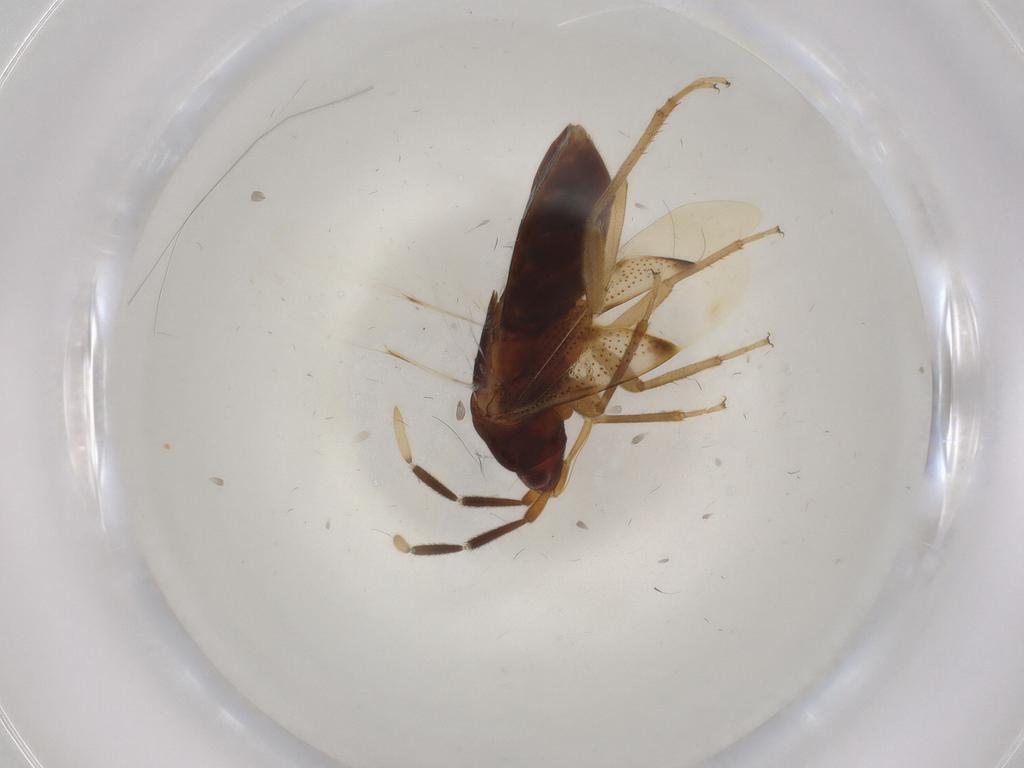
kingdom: Animalia
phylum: Arthropoda
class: Insecta
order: Hemiptera
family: Rhyparochromidae
